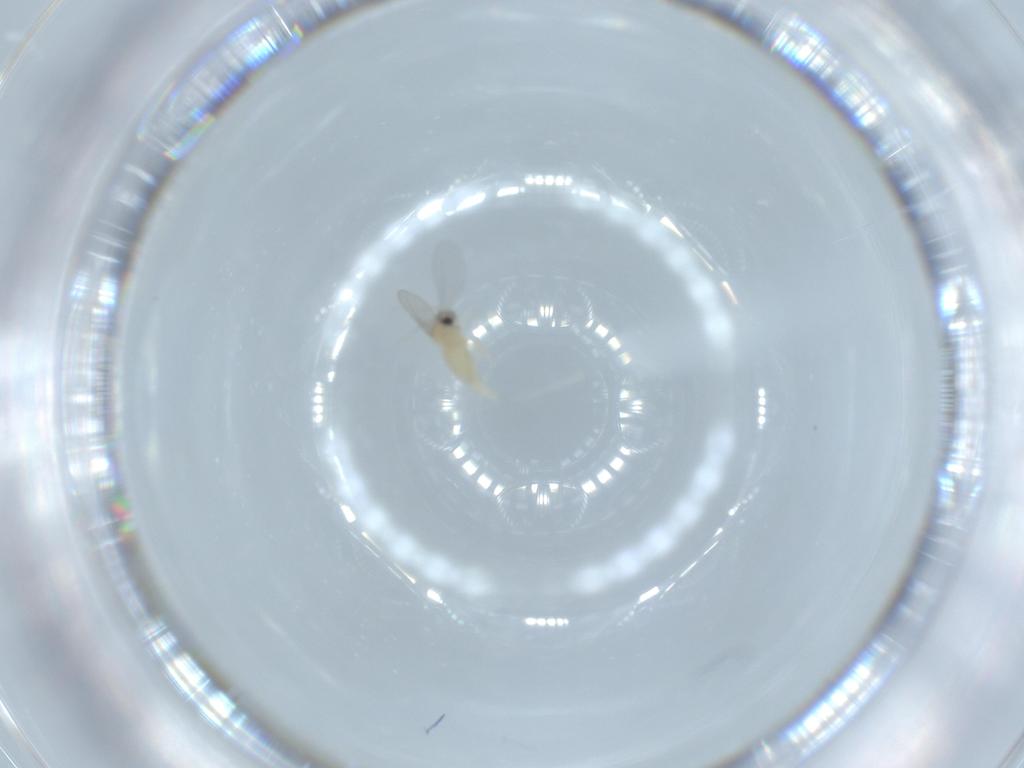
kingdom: Animalia
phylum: Arthropoda
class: Insecta
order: Diptera
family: Cecidomyiidae
